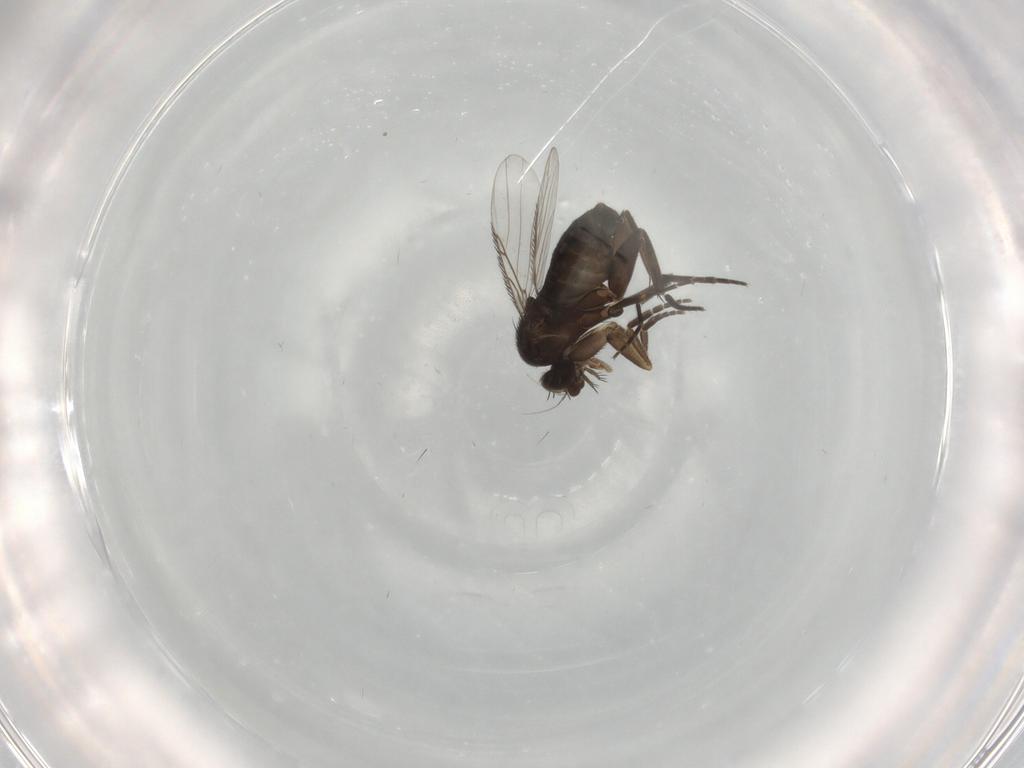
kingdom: Animalia
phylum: Arthropoda
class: Insecta
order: Diptera
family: Phoridae
